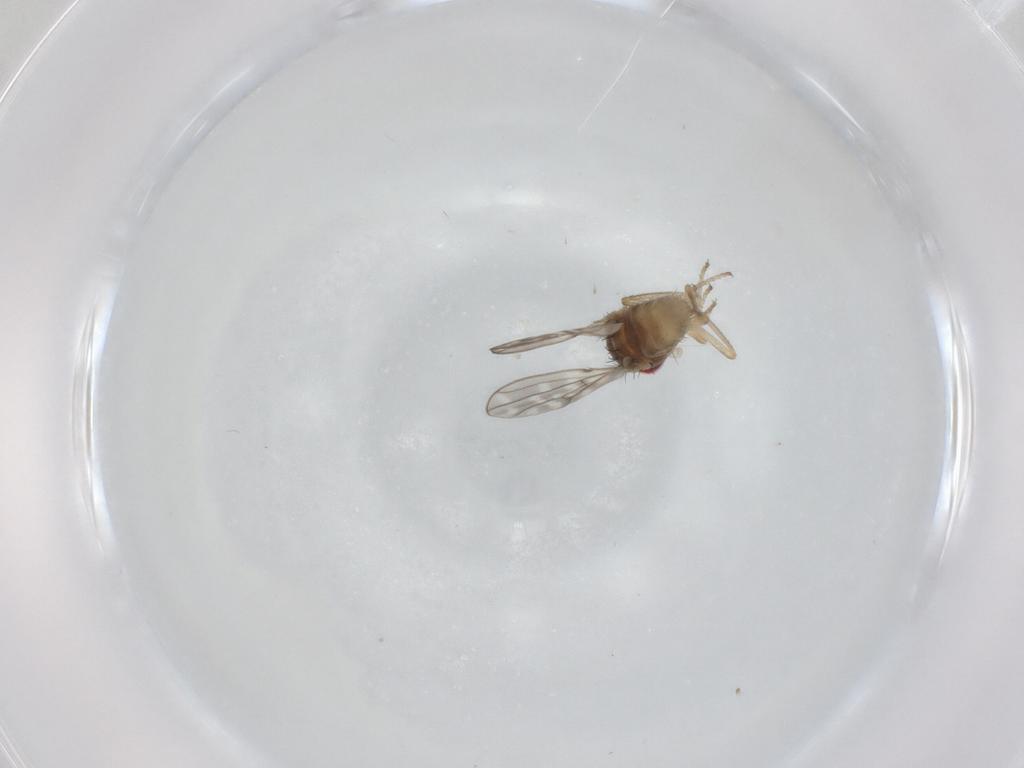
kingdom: Animalia
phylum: Arthropoda
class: Insecta
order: Diptera
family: Ephydridae
